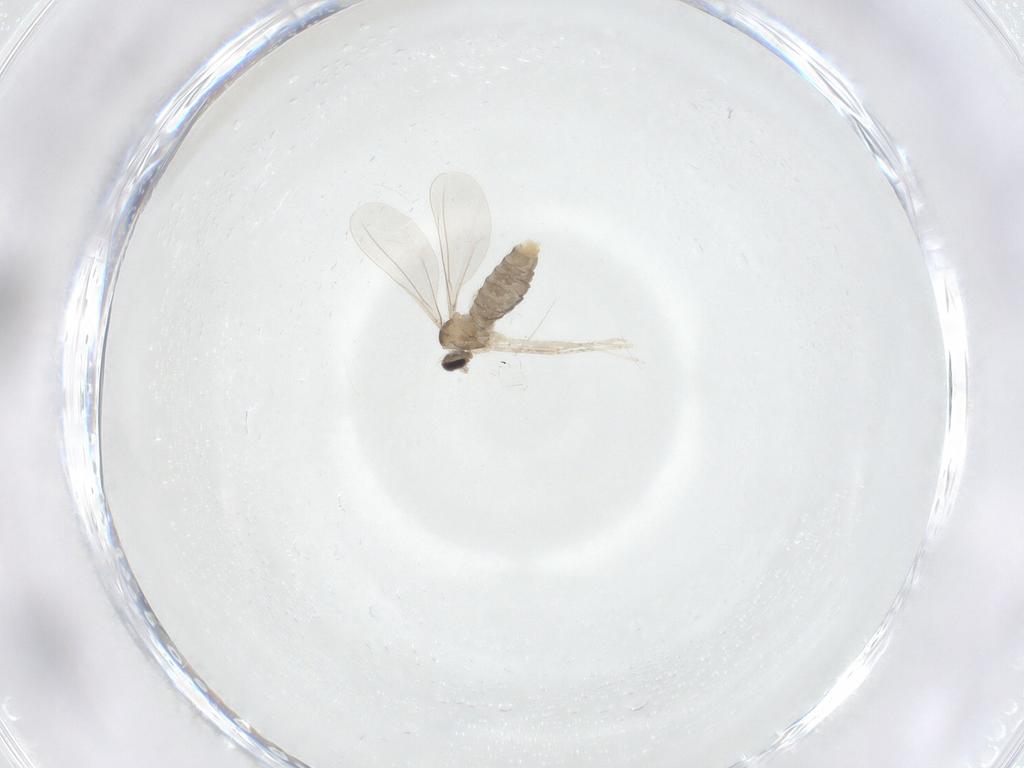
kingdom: Animalia
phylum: Arthropoda
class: Insecta
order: Diptera
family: Cecidomyiidae
